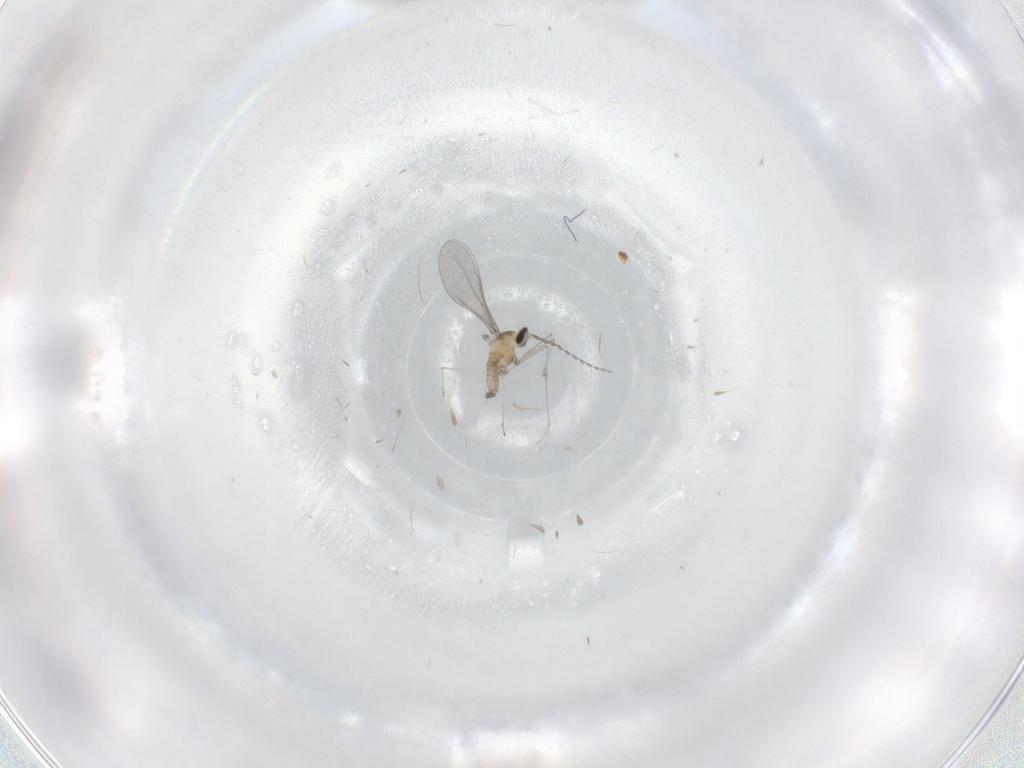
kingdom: Animalia
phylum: Arthropoda
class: Insecta
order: Diptera
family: Cecidomyiidae
